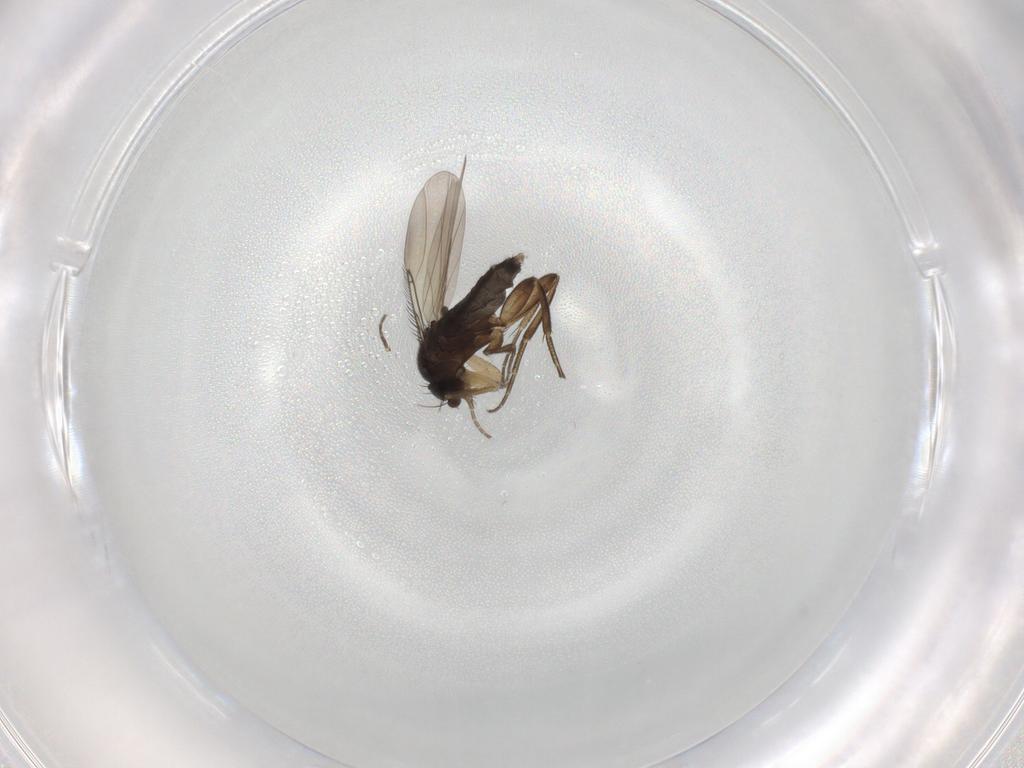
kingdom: Animalia
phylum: Arthropoda
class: Insecta
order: Diptera
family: Phoridae
